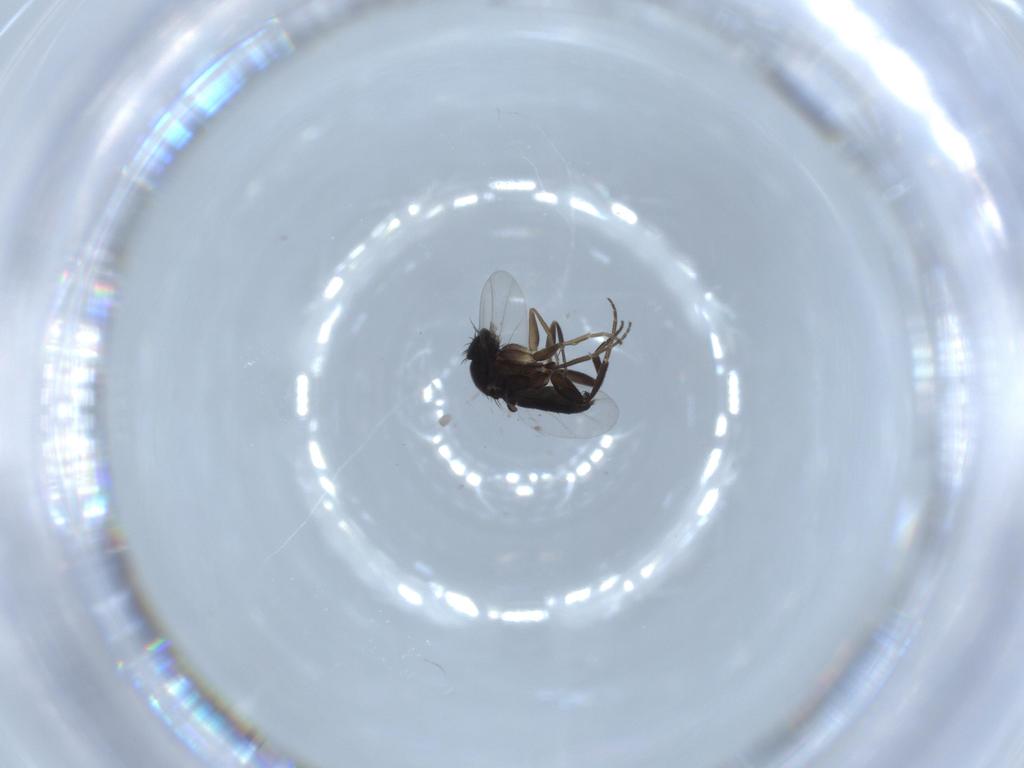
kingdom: Animalia
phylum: Arthropoda
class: Insecta
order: Diptera
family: Phoridae
